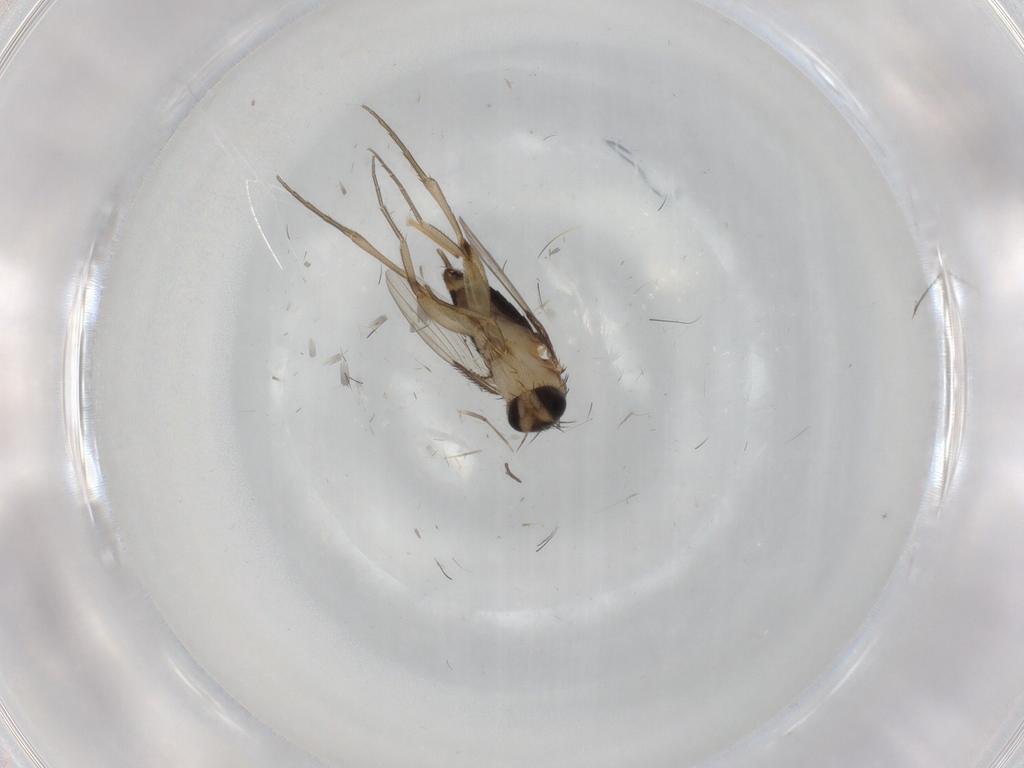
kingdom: Animalia
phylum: Arthropoda
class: Insecta
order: Diptera
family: Phoridae
